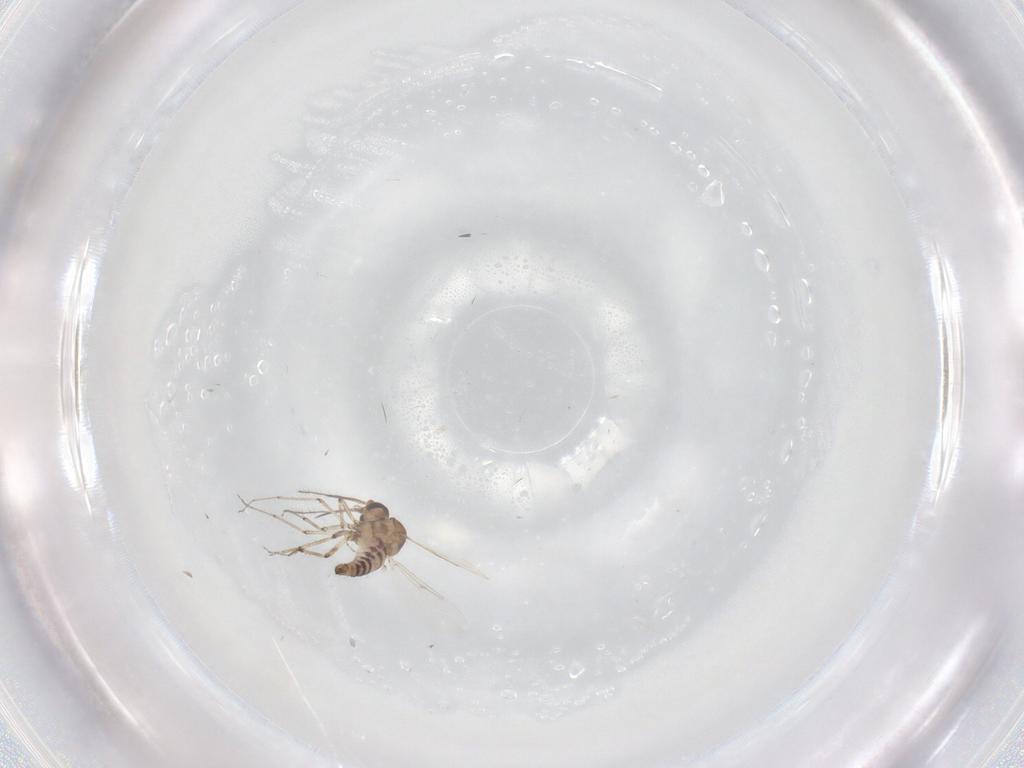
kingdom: Animalia
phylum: Arthropoda
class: Insecta
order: Diptera
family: Ceratopogonidae
